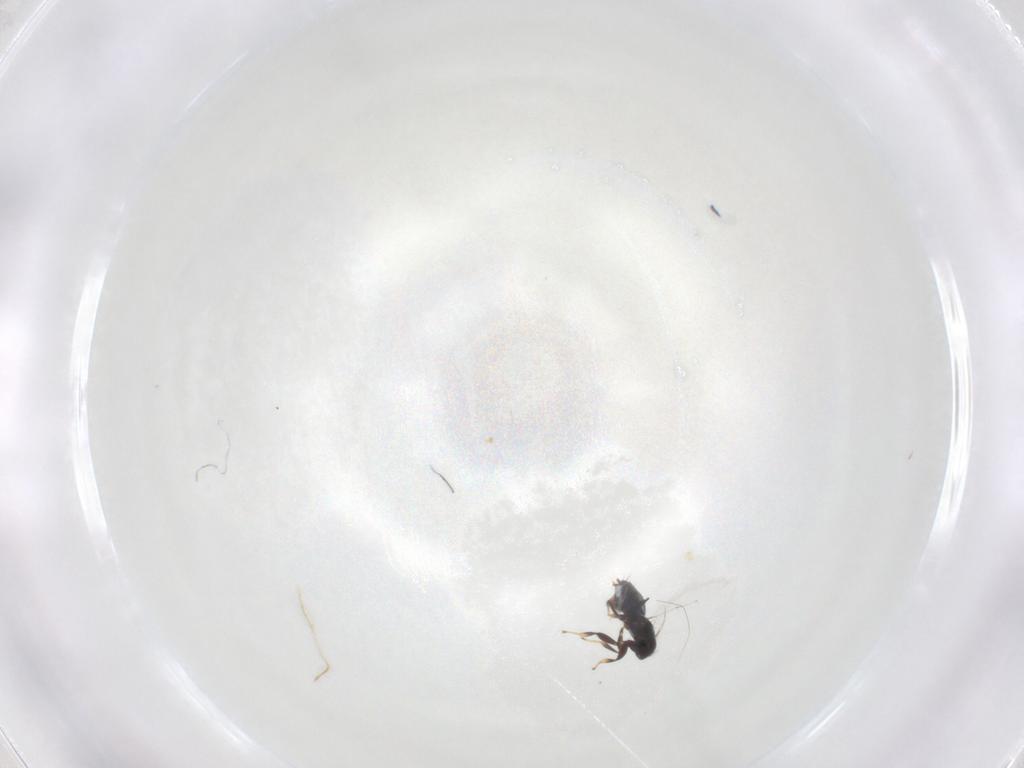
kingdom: Animalia
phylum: Arthropoda
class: Insecta
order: Hymenoptera
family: Aphelinidae
